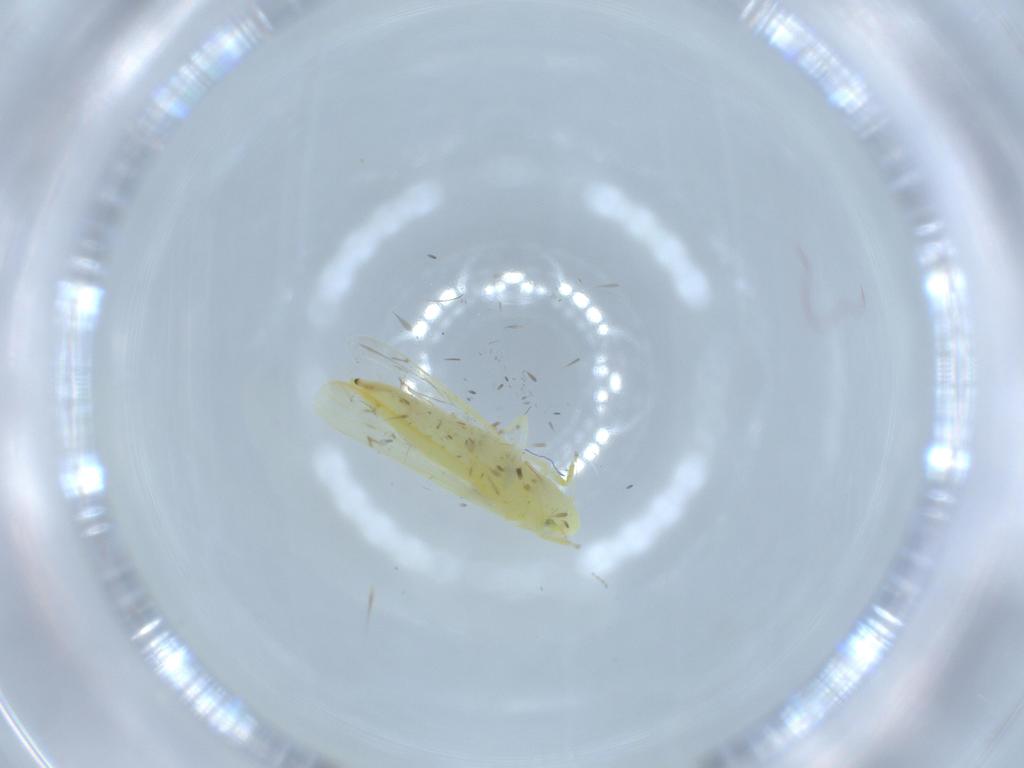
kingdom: Animalia
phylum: Arthropoda
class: Insecta
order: Hemiptera
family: Cicadellidae
